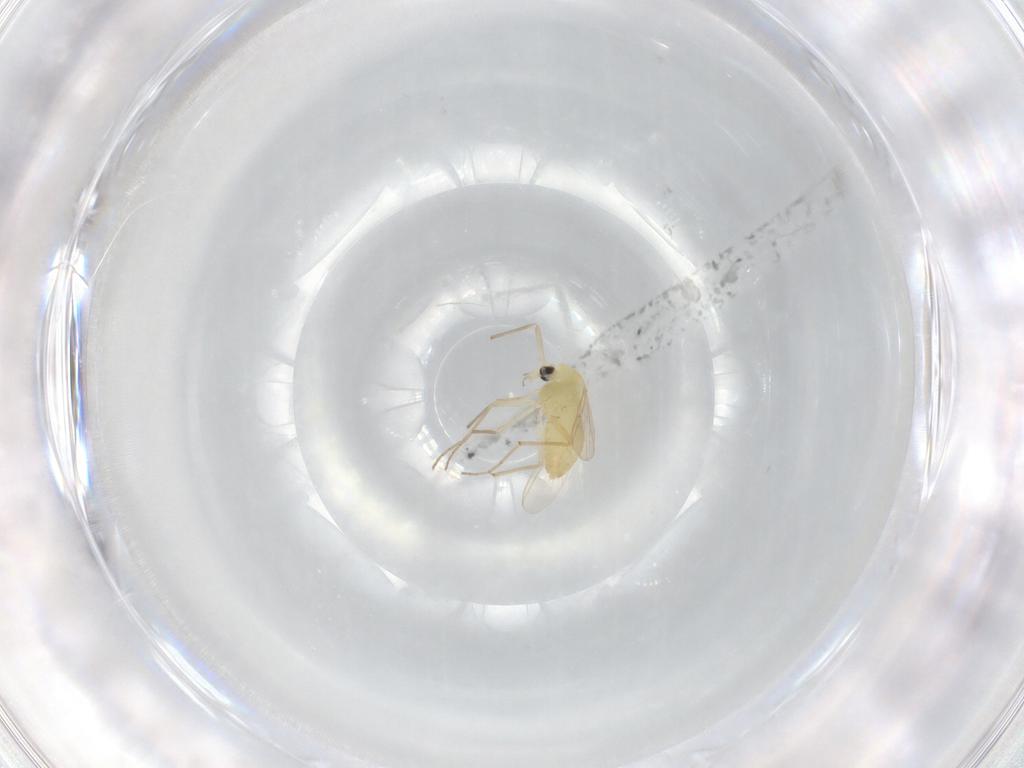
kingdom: Animalia
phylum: Arthropoda
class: Insecta
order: Diptera
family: Chironomidae
